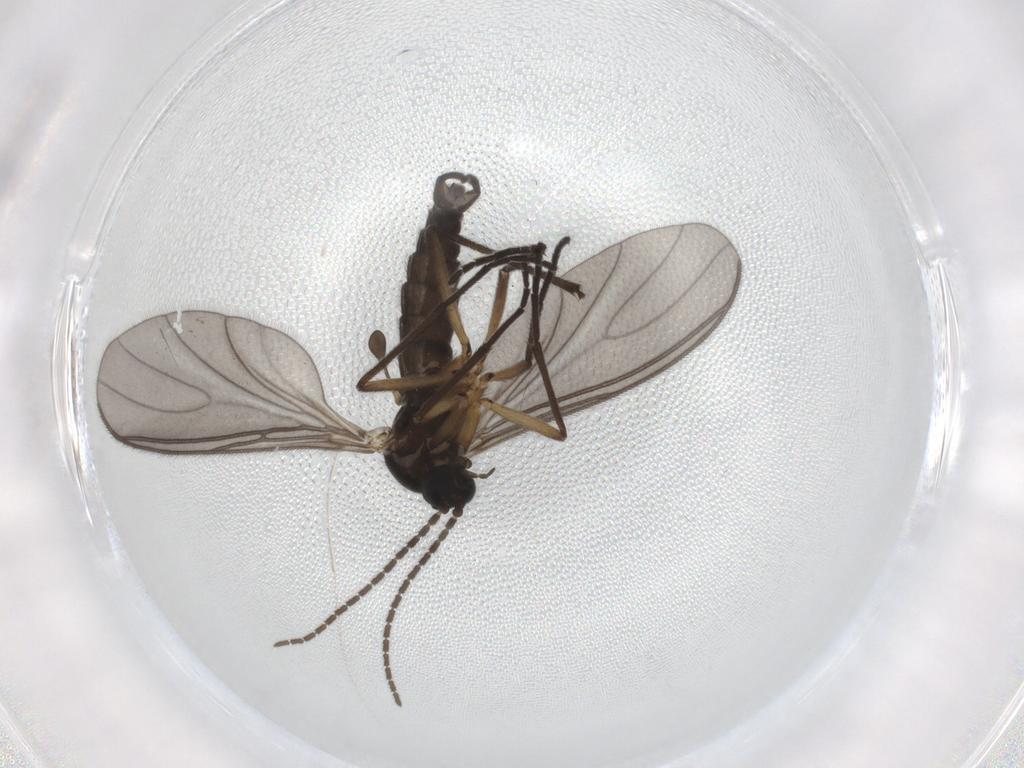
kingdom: Animalia
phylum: Arthropoda
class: Insecta
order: Diptera
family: Sciaridae
